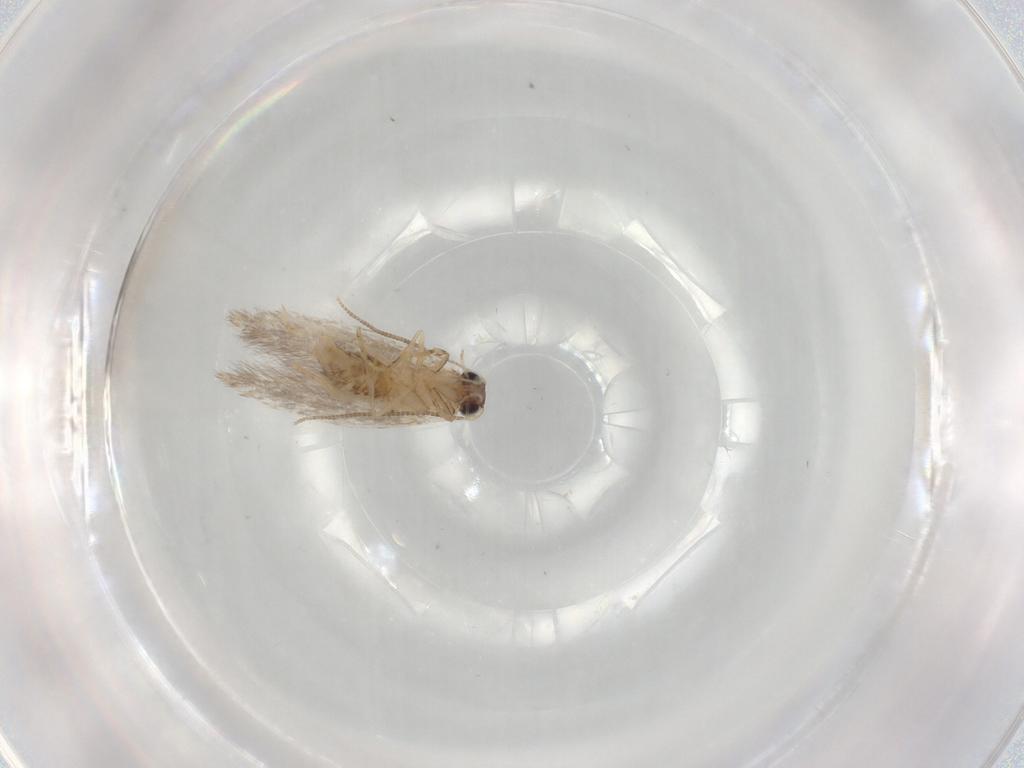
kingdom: Animalia
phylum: Arthropoda
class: Insecta
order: Lepidoptera
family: Tineidae
